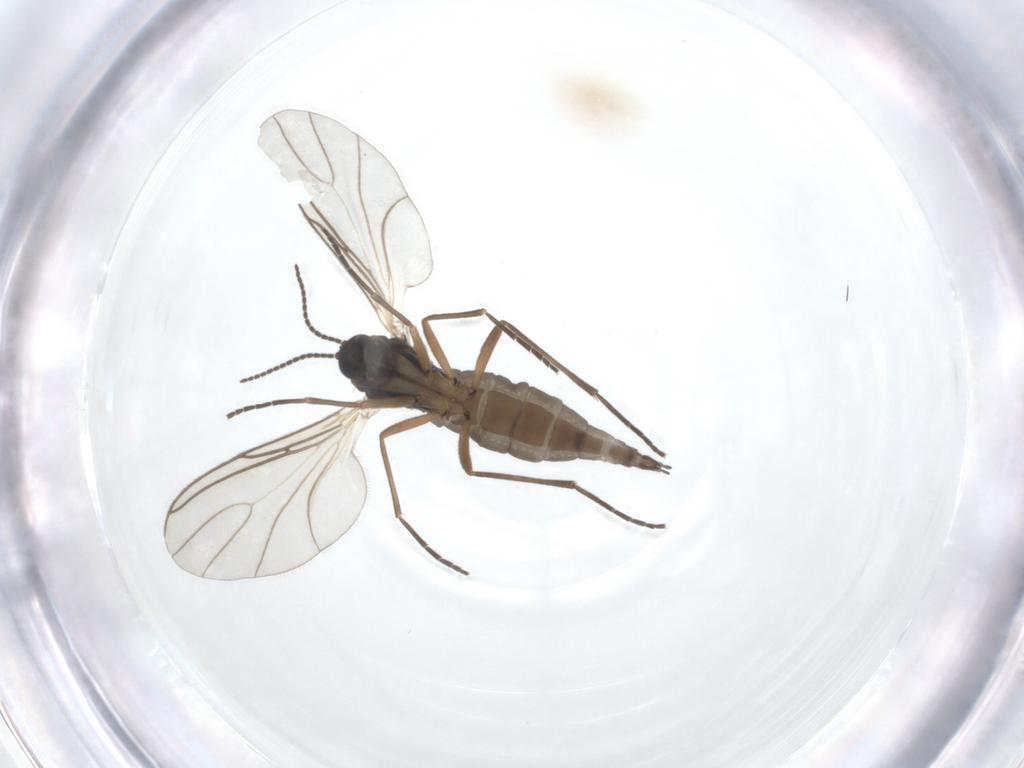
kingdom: Animalia
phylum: Arthropoda
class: Insecta
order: Diptera
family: Sciaridae
